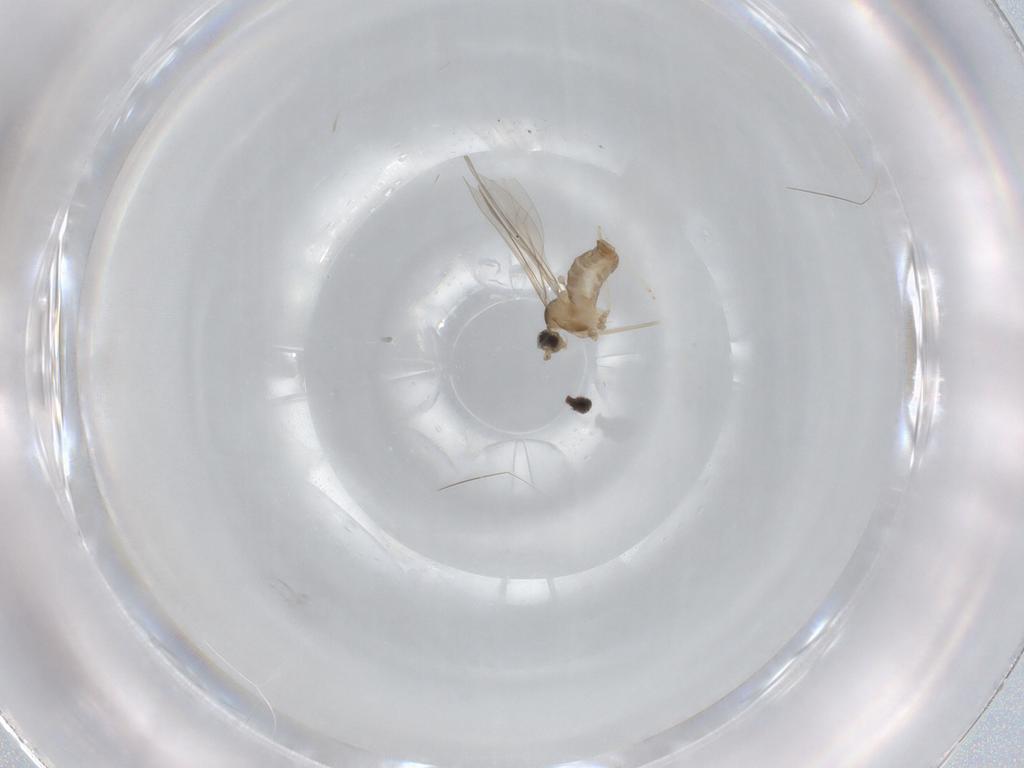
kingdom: Animalia
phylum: Arthropoda
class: Insecta
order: Diptera
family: Cecidomyiidae
